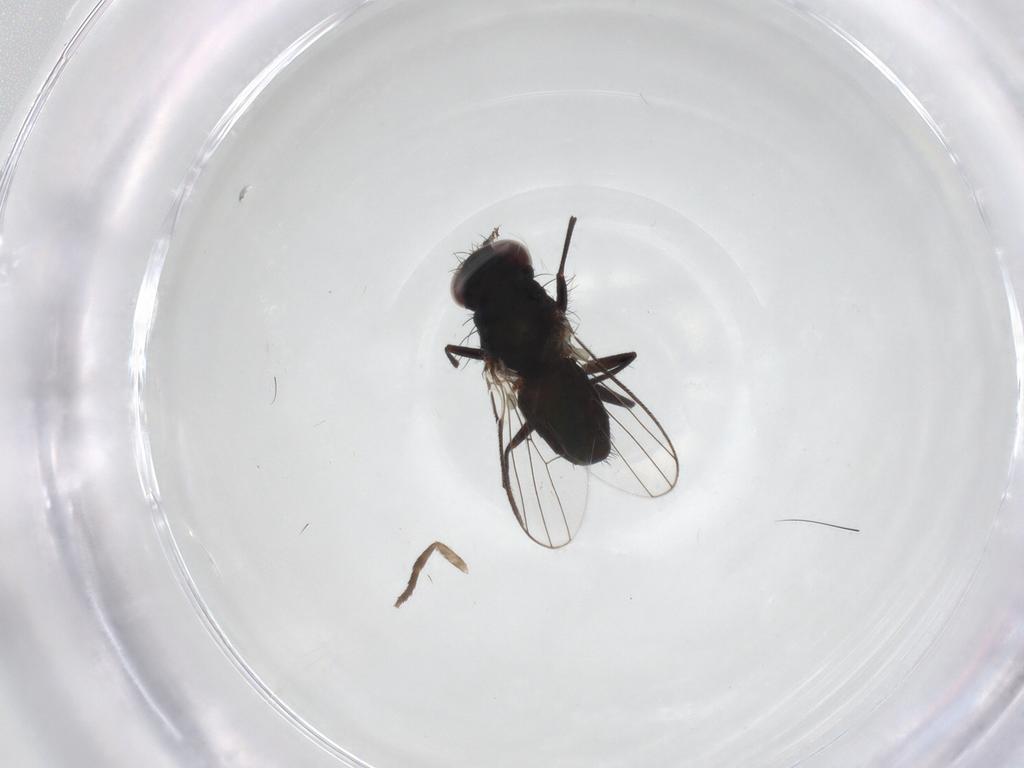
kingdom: Animalia
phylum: Arthropoda
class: Insecta
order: Diptera
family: Carnidae
